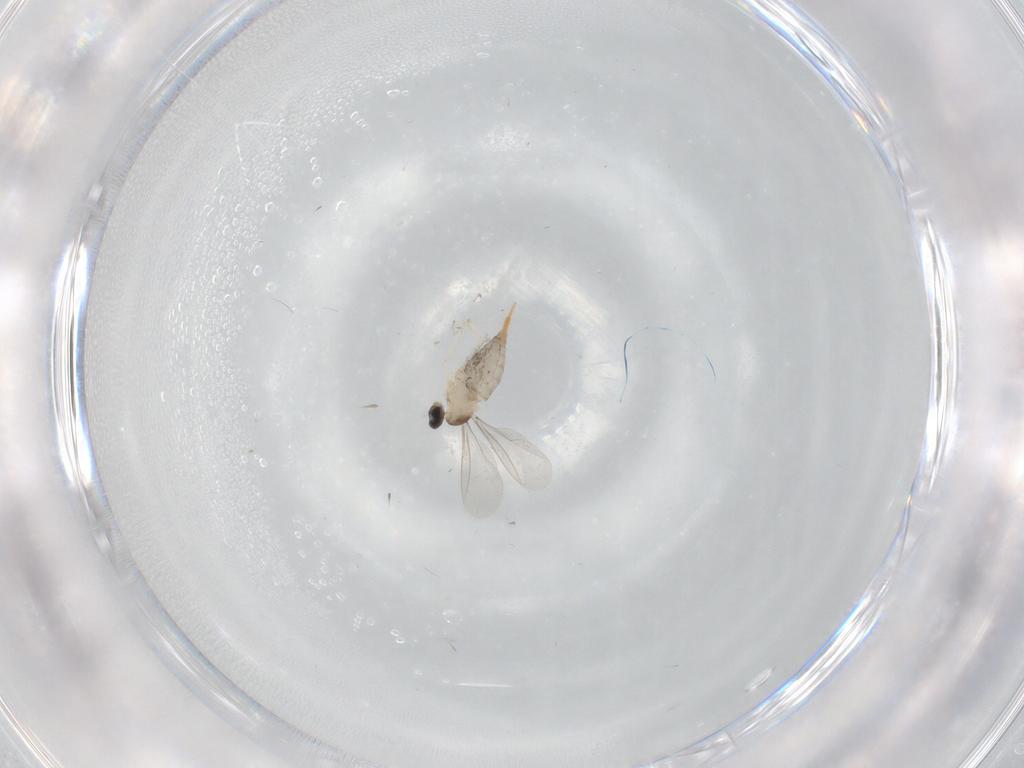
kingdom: Animalia
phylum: Arthropoda
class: Insecta
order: Diptera
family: Cecidomyiidae
